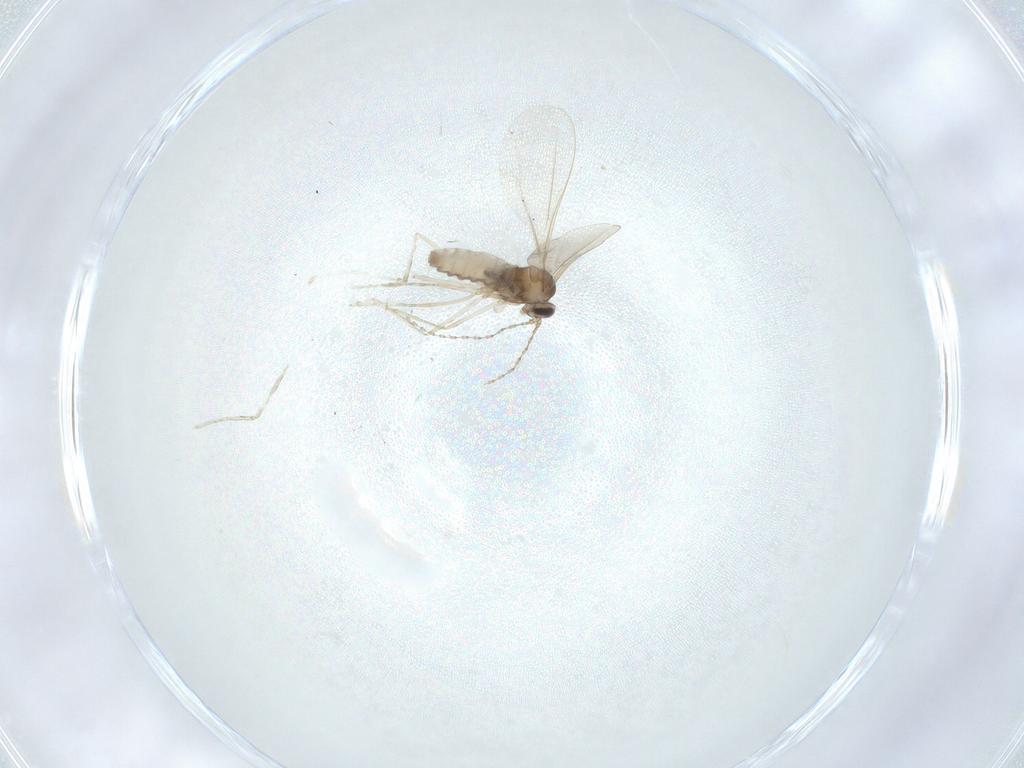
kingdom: Animalia
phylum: Arthropoda
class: Insecta
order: Diptera
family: Cecidomyiidae
